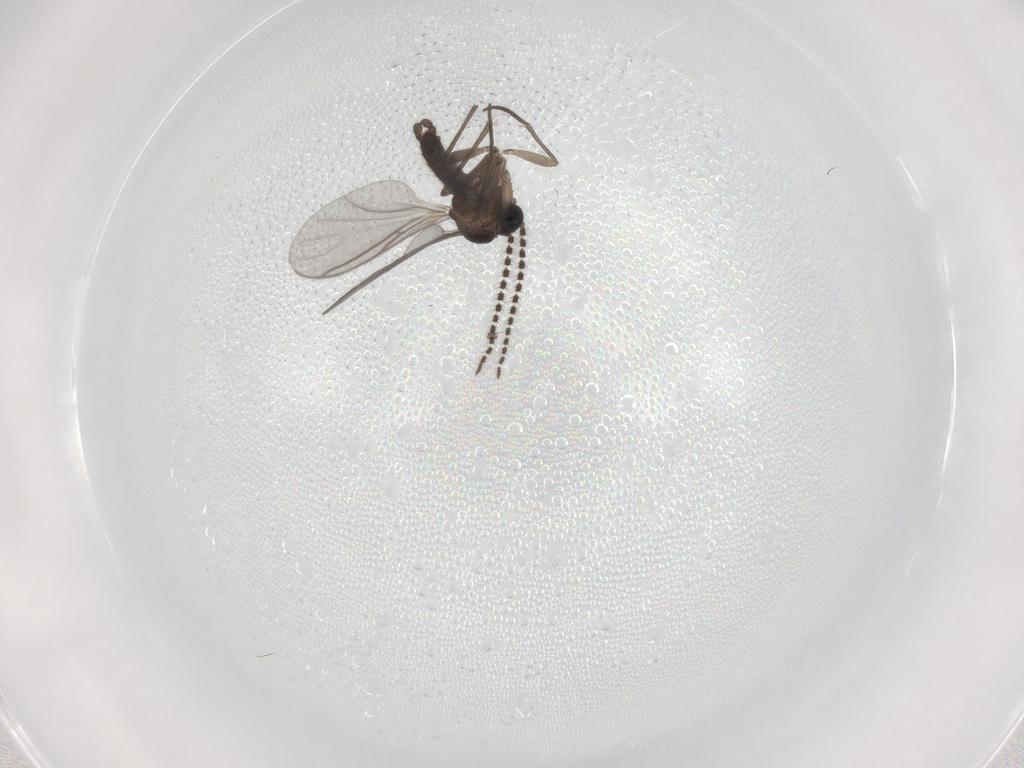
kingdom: Animalia
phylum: Arthropoda
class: Insecta
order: Diptera
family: Sciaridae
